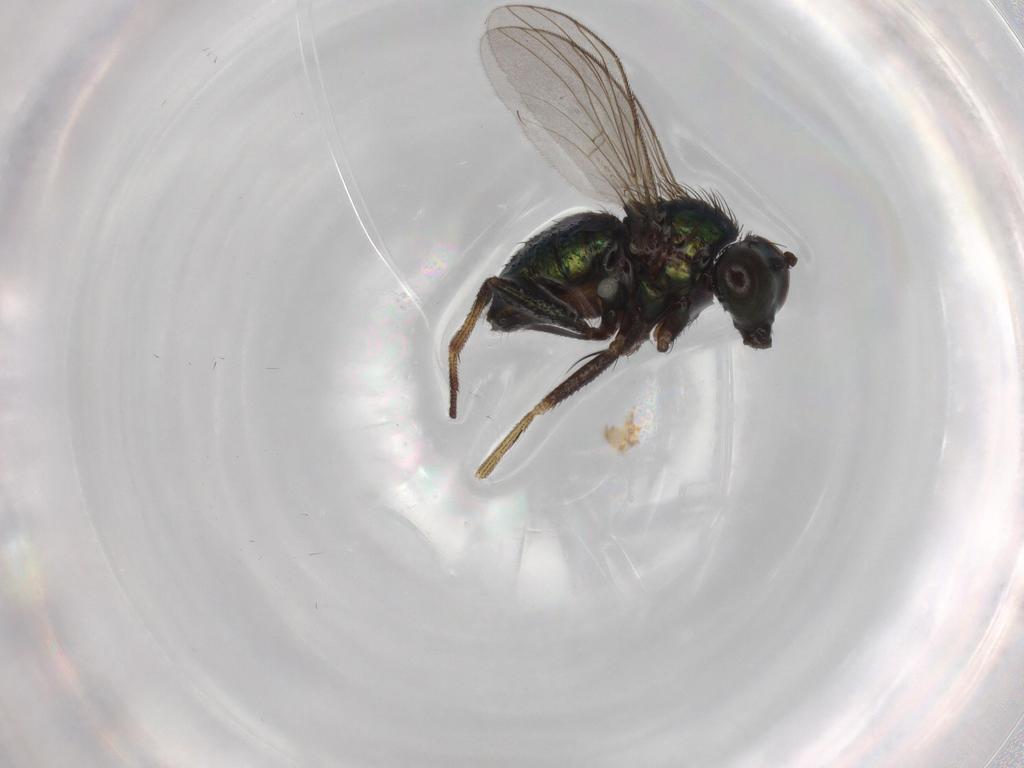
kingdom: Animalia
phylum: Arthropoda
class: Insecta
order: Diptera
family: Dolichopodidae
